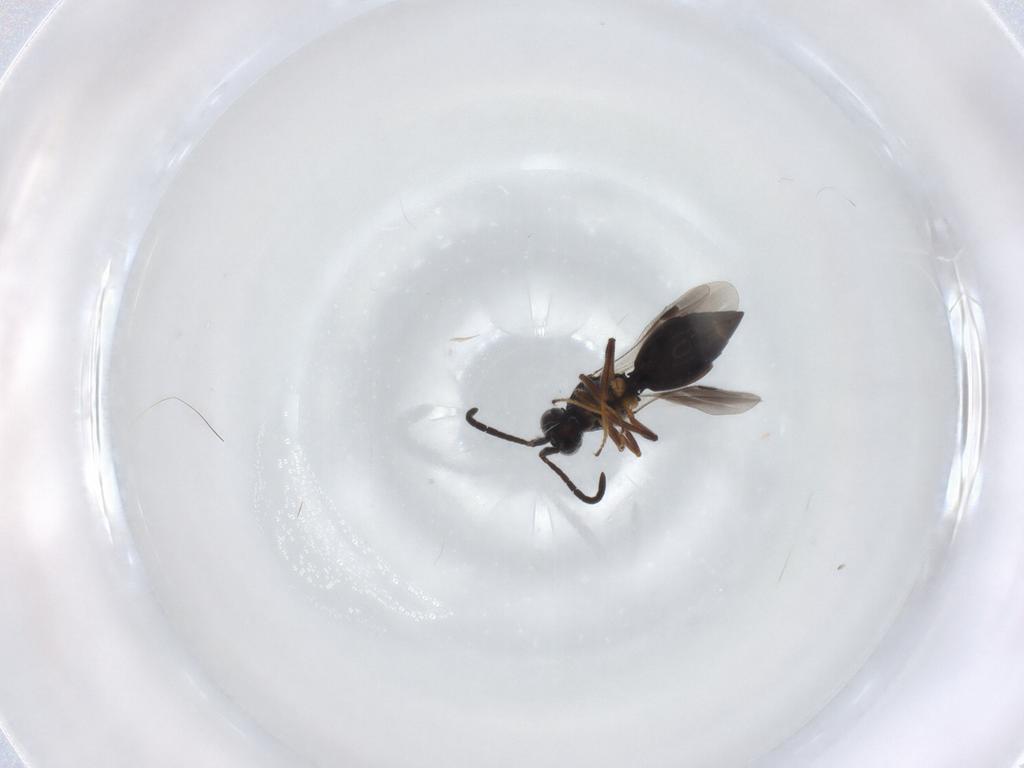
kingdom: Animalia
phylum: Arthropoda
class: Insecta
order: Hymenoptera
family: Megaspilidae
